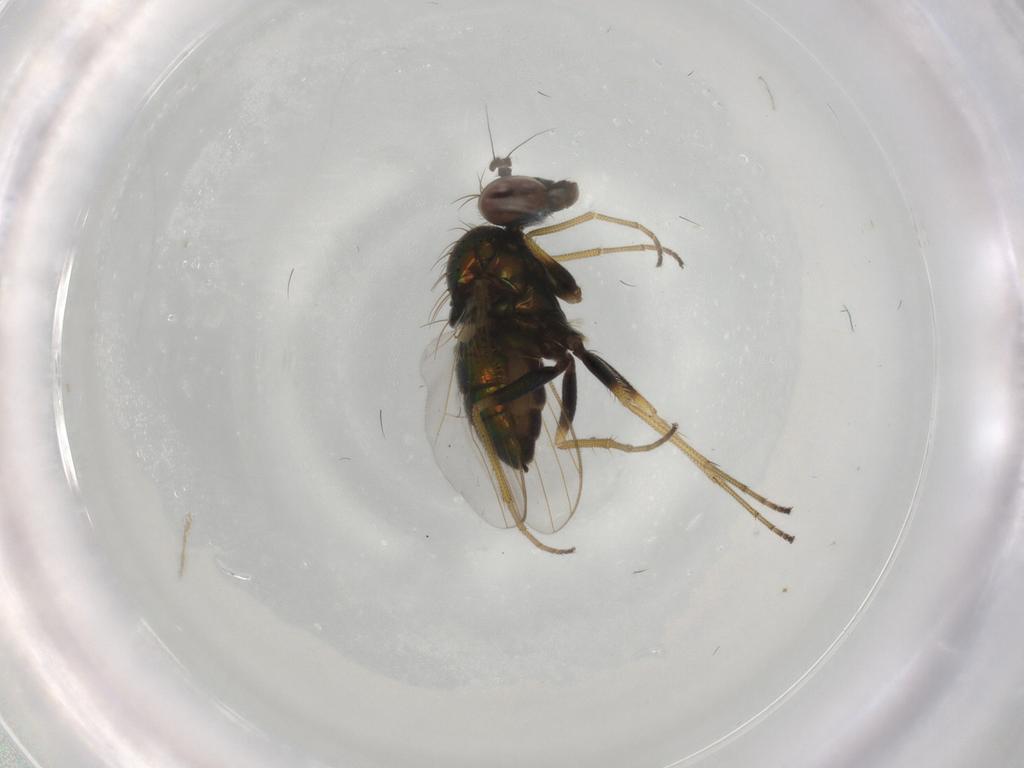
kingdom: Animalia
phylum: Arthropoda
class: Insecta
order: Diptera
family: Dolichopodidae
